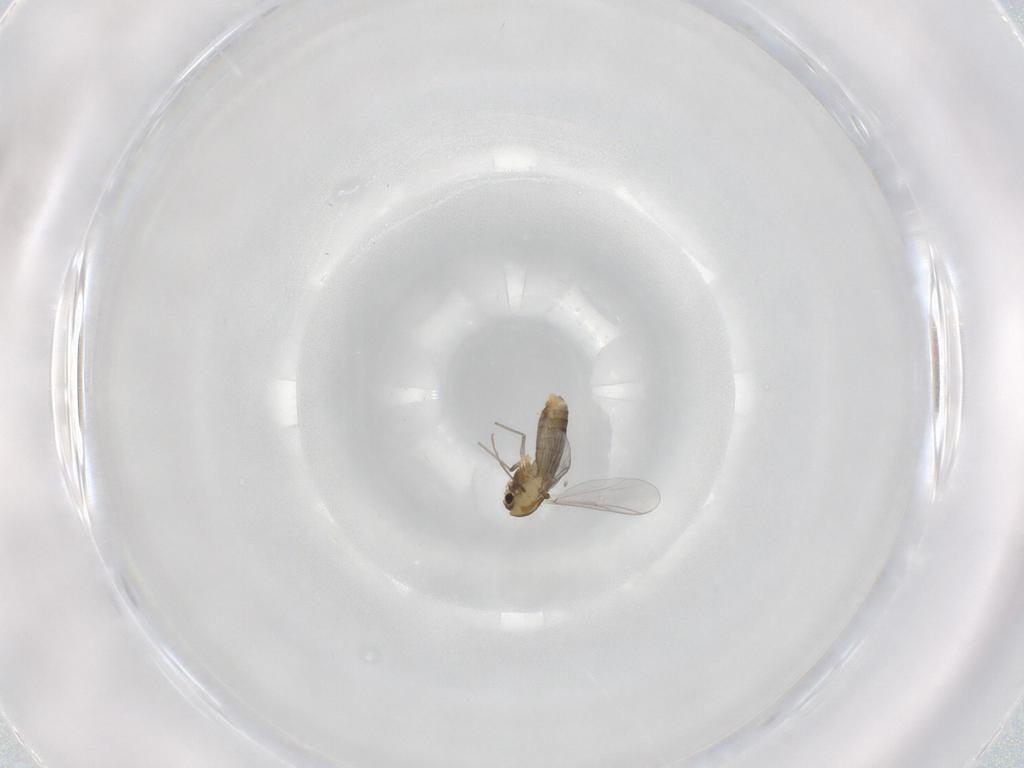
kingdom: Animalia
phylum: Arthropoda
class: Insecta
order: Diptera
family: Chironomidae
